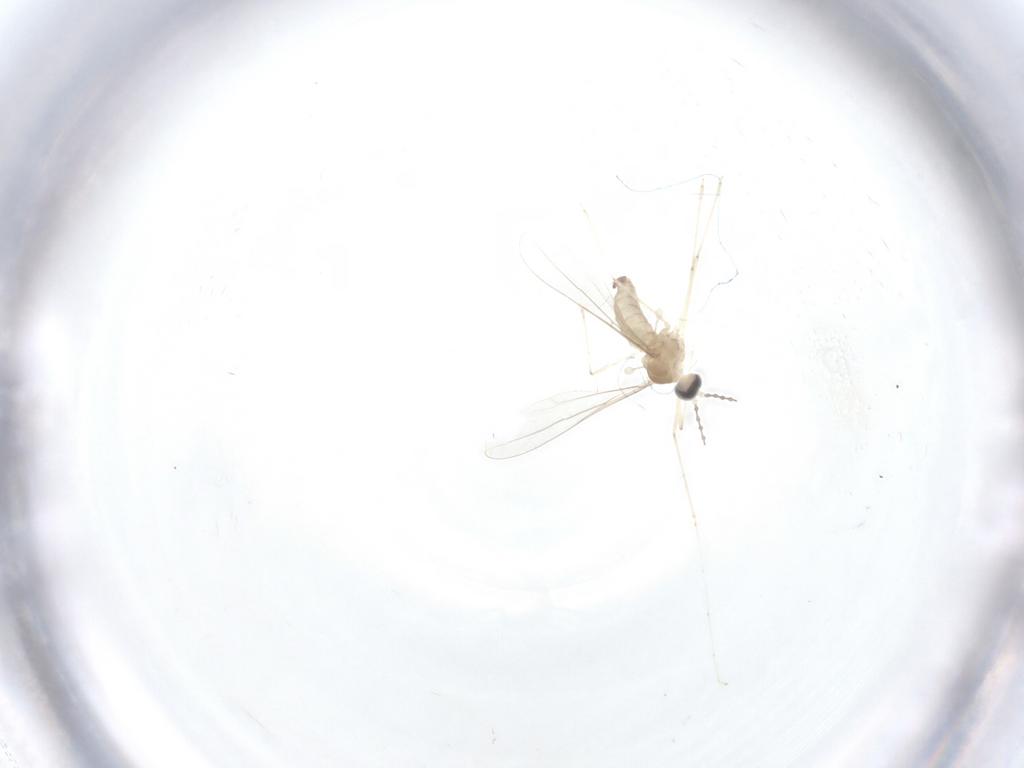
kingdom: Animalia
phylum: Arthropoda
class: Insecta
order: Diptera
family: Cecidomyiidae
